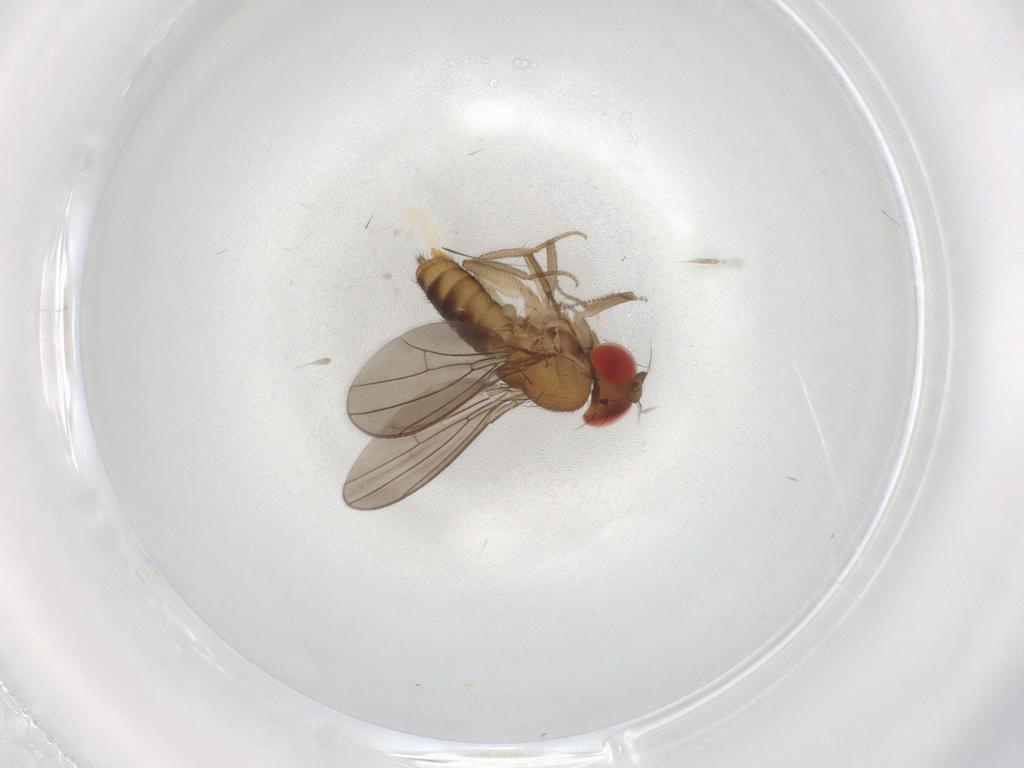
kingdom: Animalia
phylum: Arthropoda
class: Insecta
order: Diptera
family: Drosophilidae
